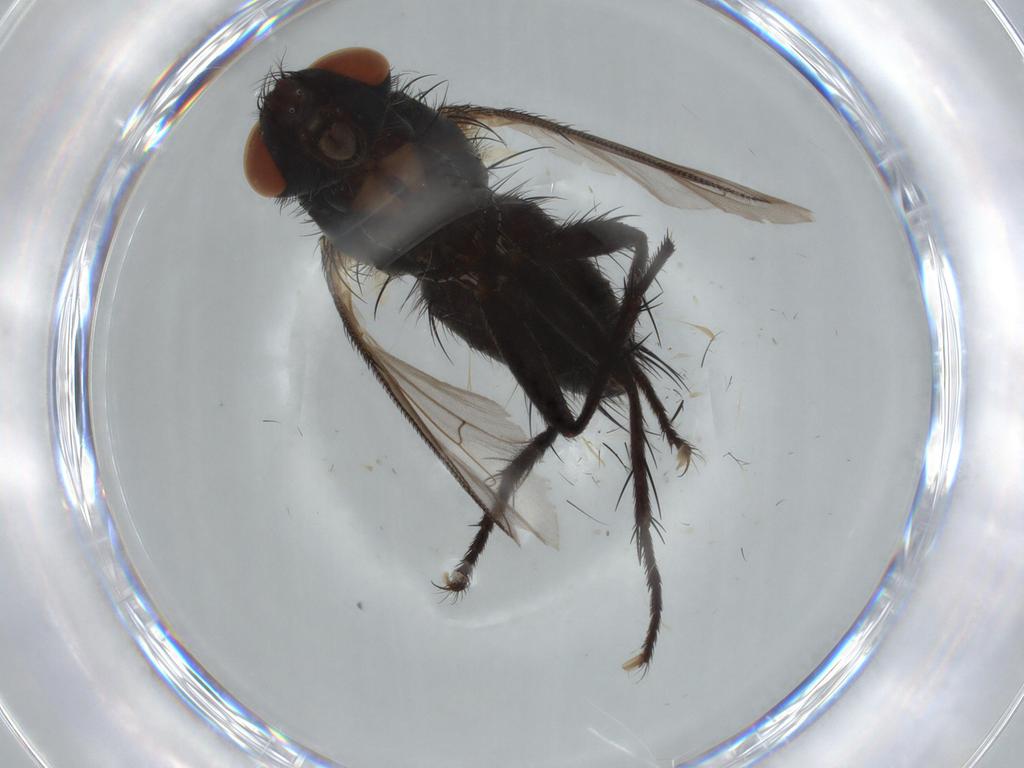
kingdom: Animalia
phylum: Arthropoda
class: Insecta
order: Diptera
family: Sarcophagidae
